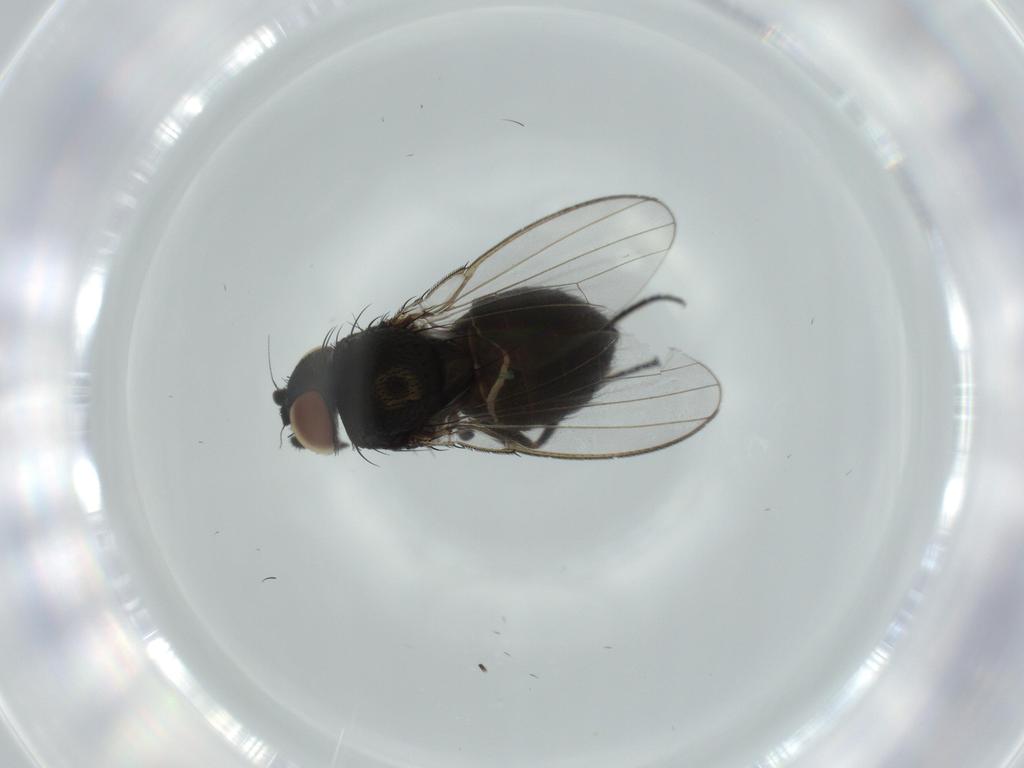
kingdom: Animalia
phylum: Arthropoda
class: Insecta
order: Diptera
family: Milichiidae
